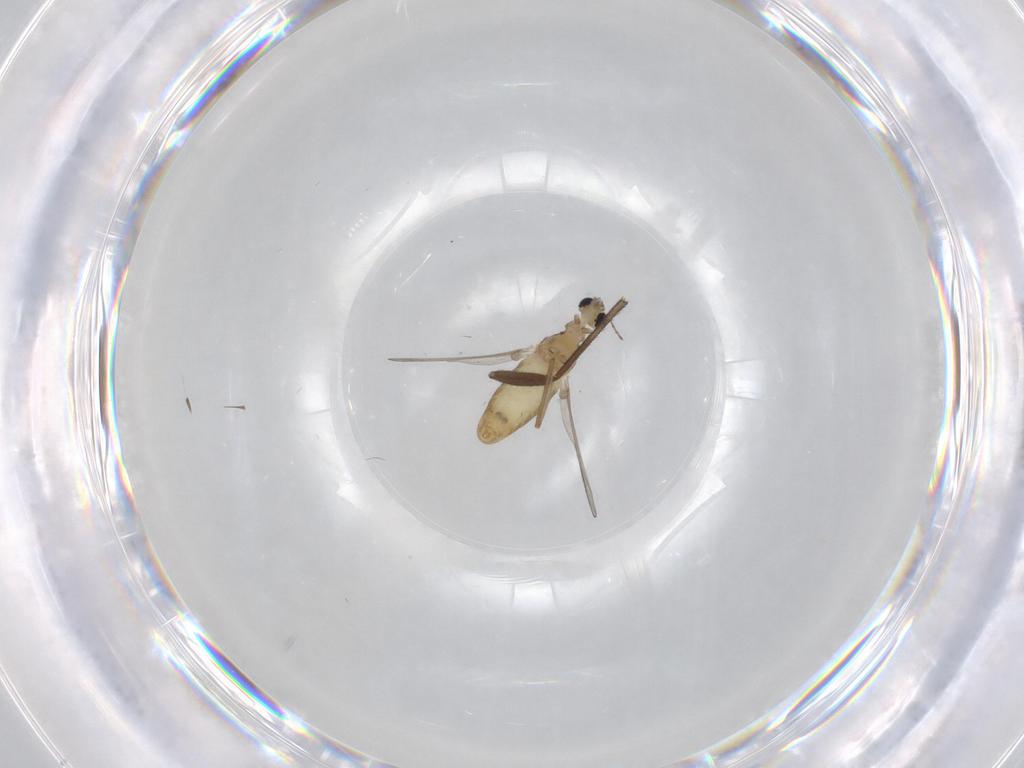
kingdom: Animalia
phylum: Arthropoda
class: Insecta
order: Diptera
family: Chironomidae
